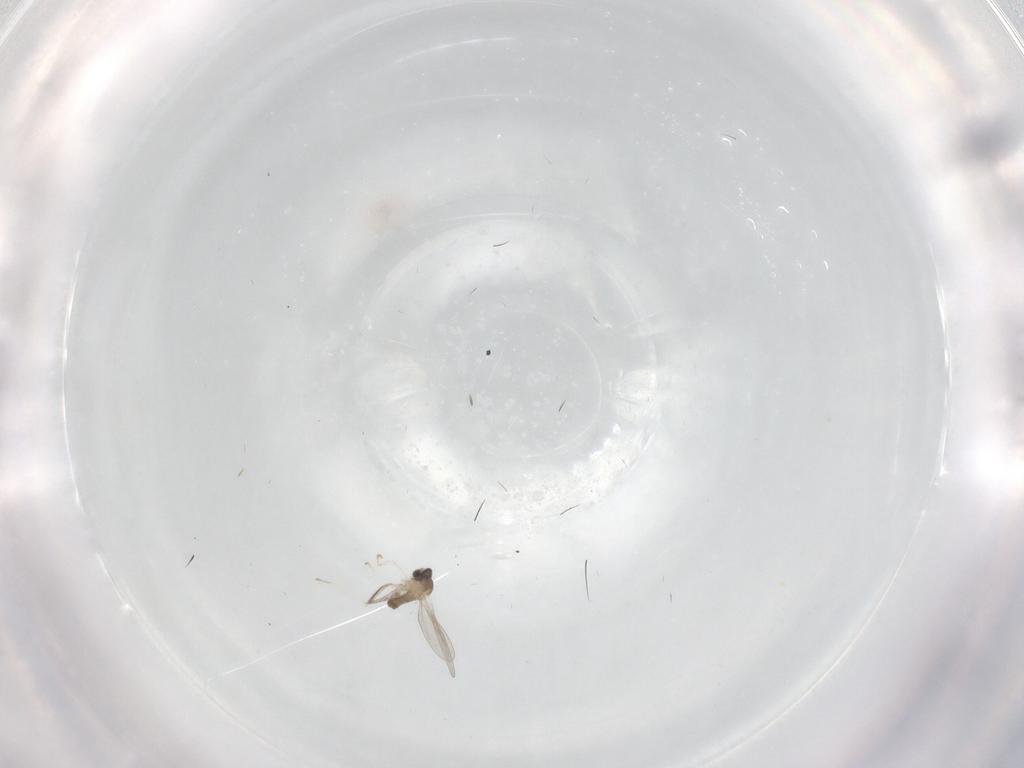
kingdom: Animalia
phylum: Arthropoda
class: Insecta
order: Diptera
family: Cecidomyiidae
